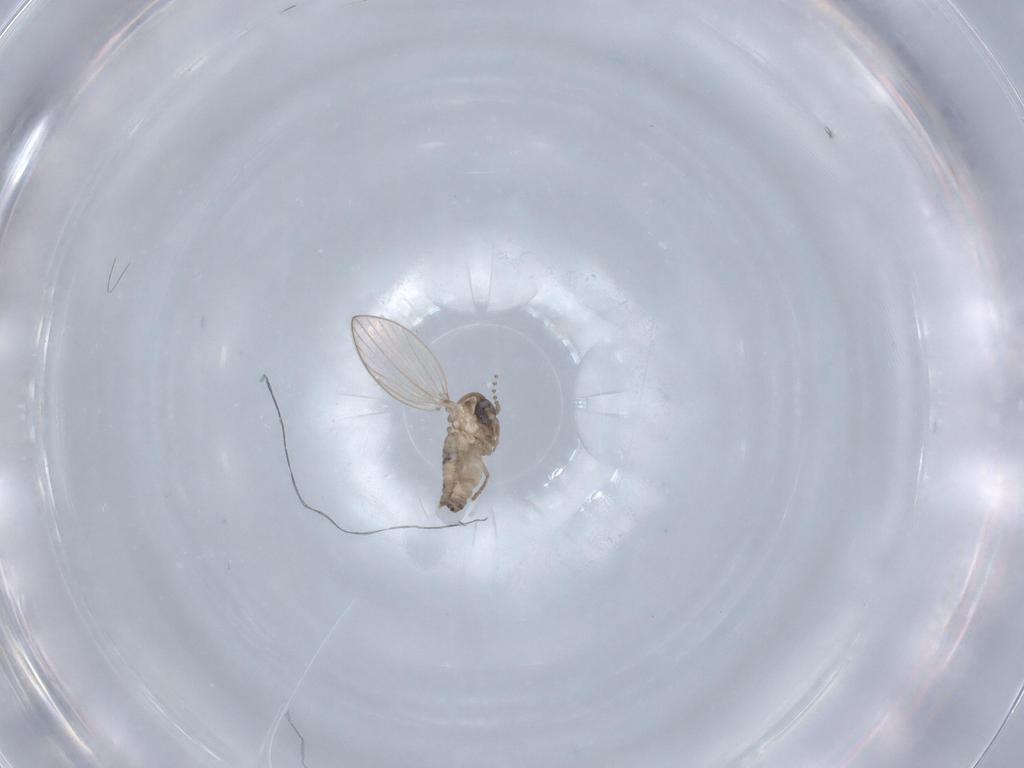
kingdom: Animalia
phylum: Arthropoda
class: Insecta
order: Diptera
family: Psychodidae
